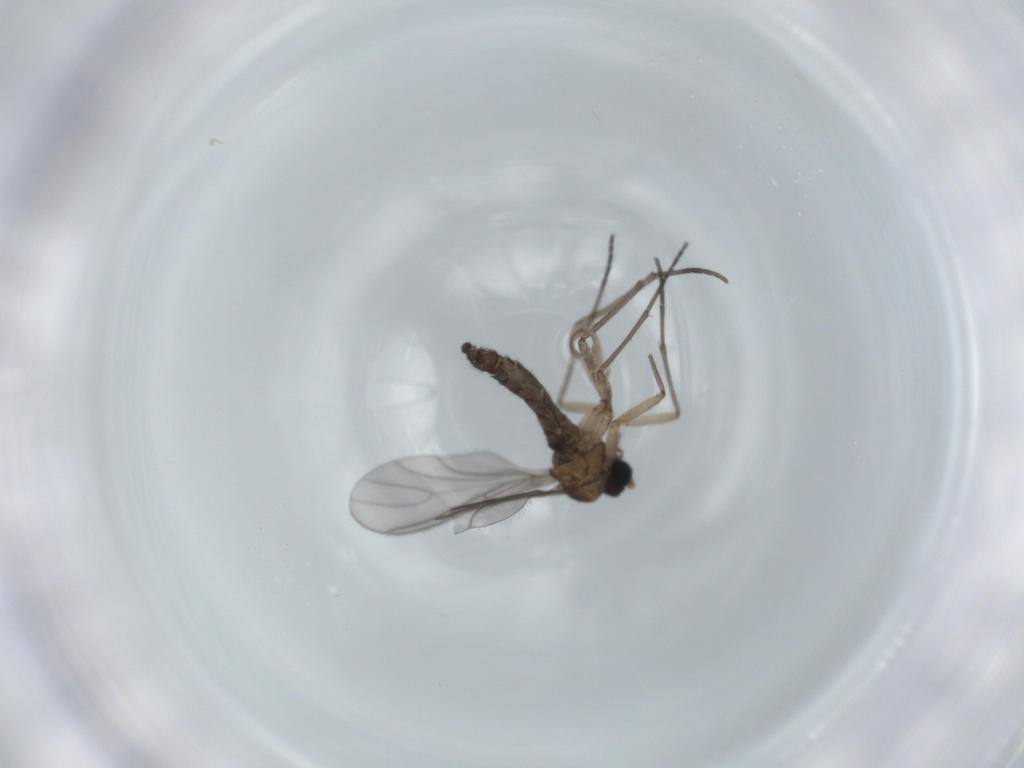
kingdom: Animalia
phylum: Arthropoda
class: Insecta
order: Diptera
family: Sciaridae
